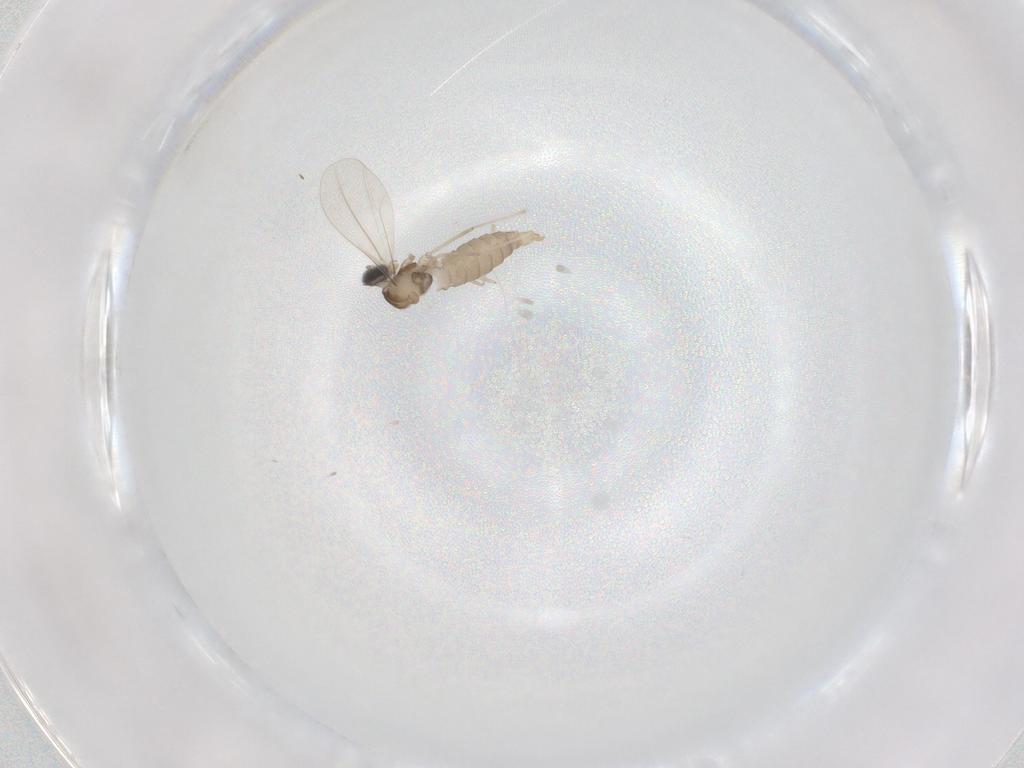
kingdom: Animalia
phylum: Arthropoda
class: Insecta
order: Diptera
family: Cecidomyiidae
